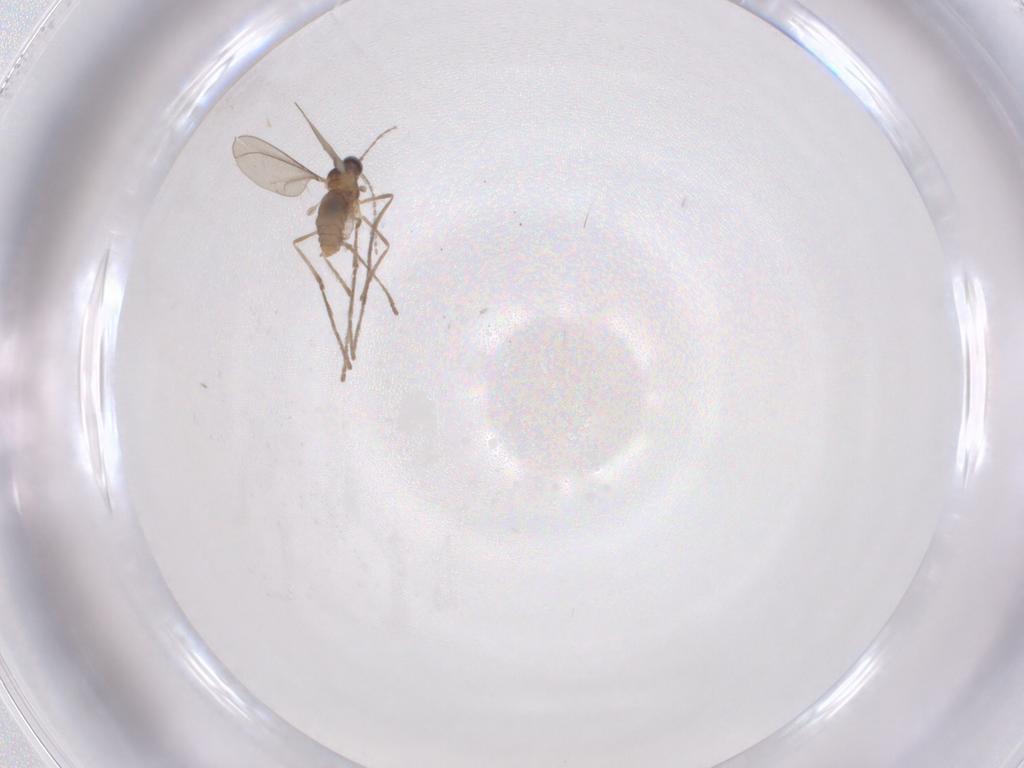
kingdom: Animalia
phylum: Arthropoda
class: Insecta
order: Diptera
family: Cecidomyiidae
